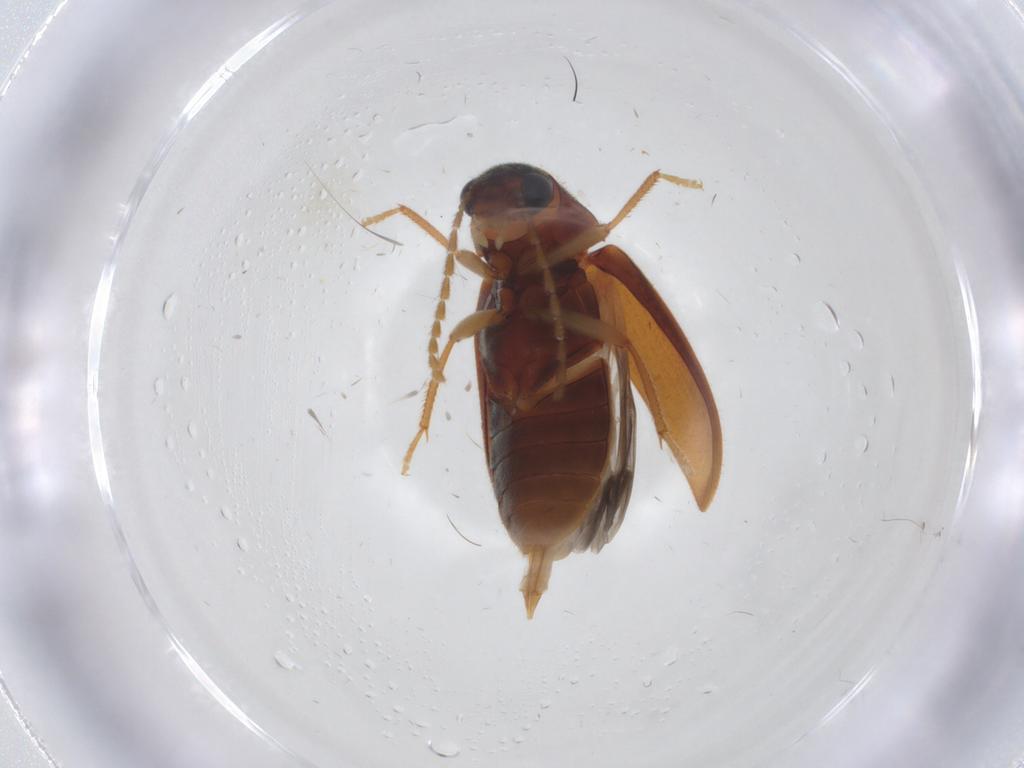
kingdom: Animalia
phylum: Arthropoda
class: Insecta
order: Coleoptera
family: Ptilodactylidae
